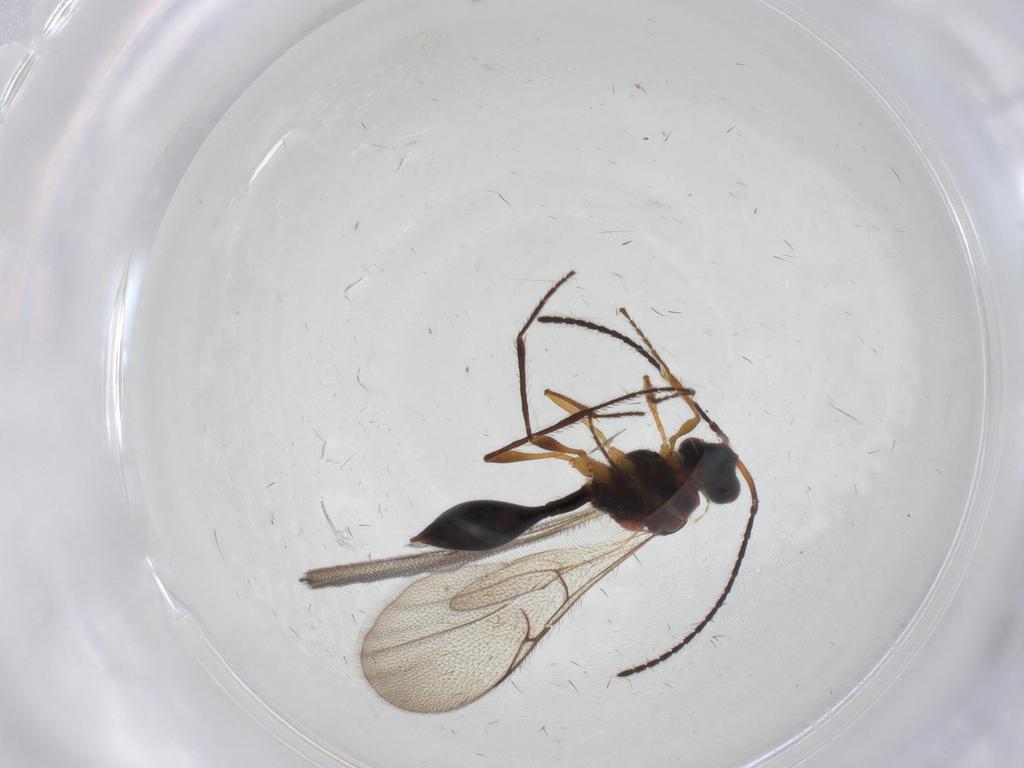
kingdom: Animalia
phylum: Arthropoda
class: Insecta
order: Hymenoptera
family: Diapriidae
